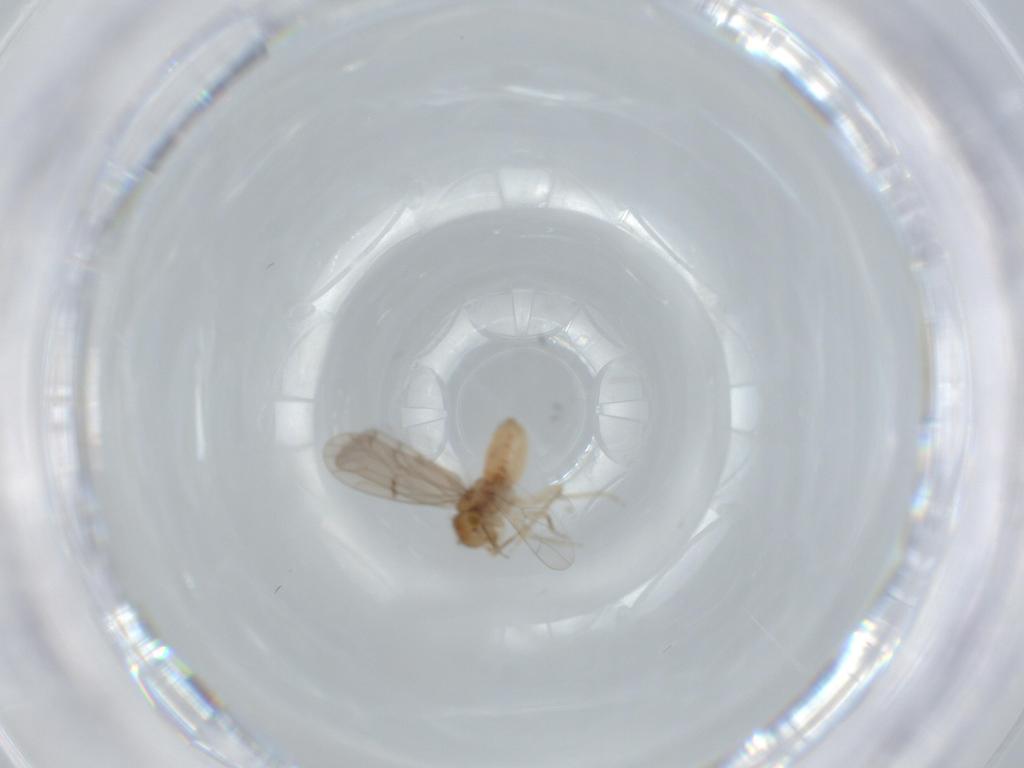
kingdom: Animalia
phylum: Arthropoda
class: Insecta
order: Psocodea
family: Ectopsocidae
